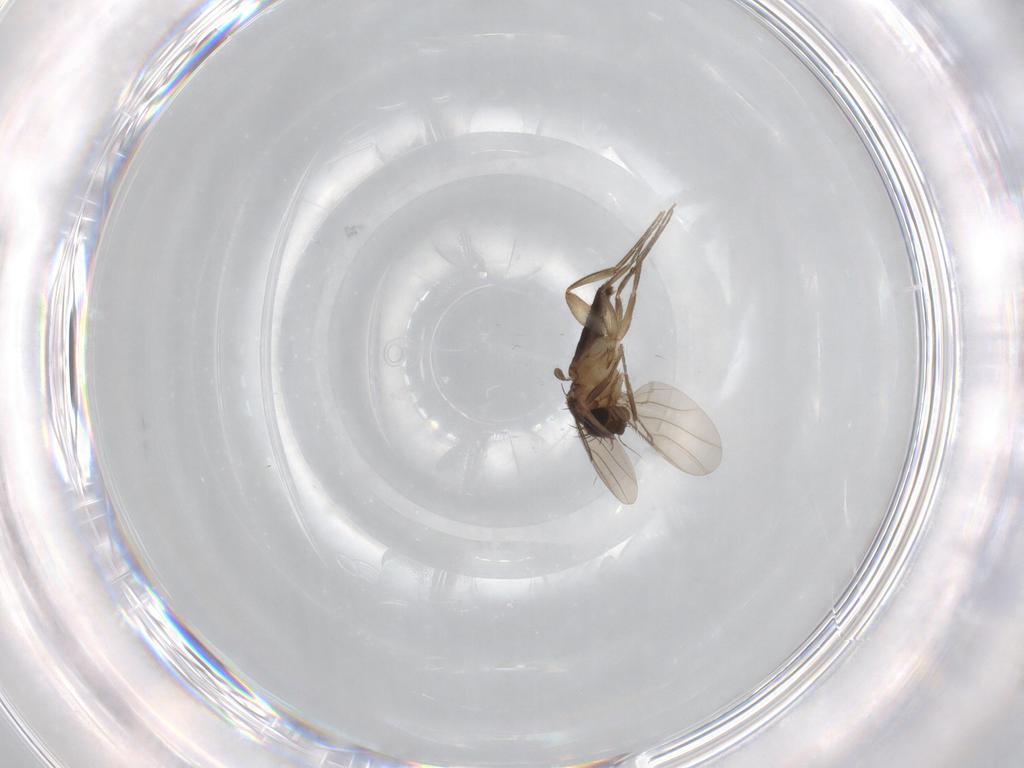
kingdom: Animalia
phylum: Arthropoda
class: Insecta
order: Diptera
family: Phoridae
